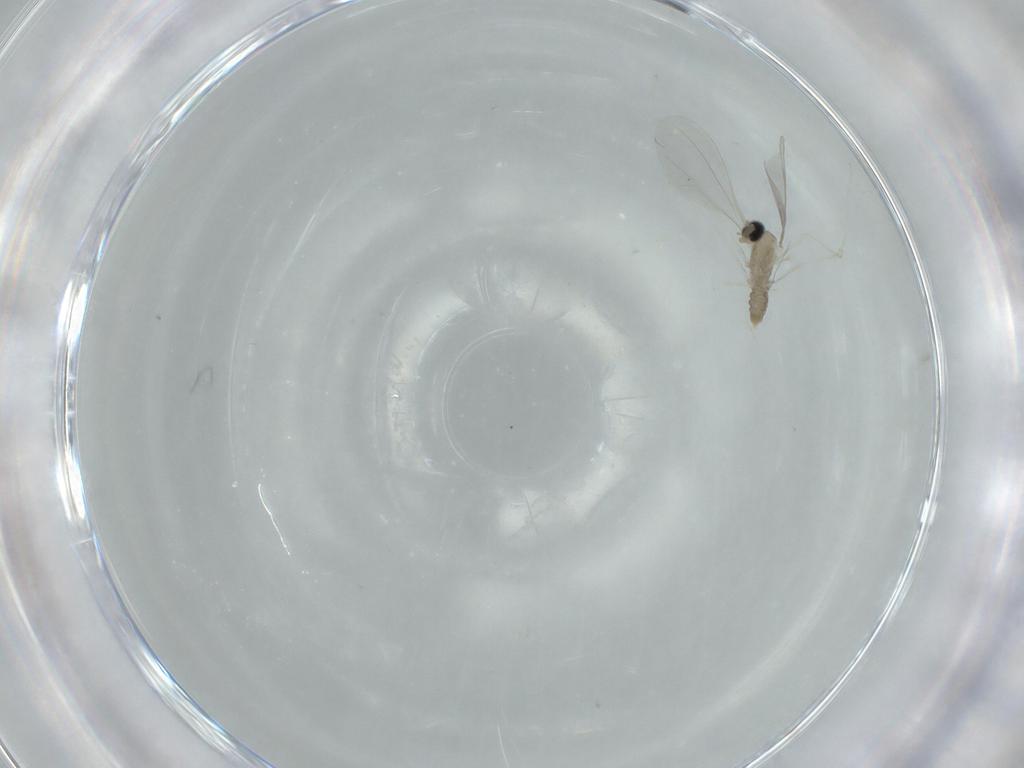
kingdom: Animalia
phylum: Arthropoda
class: Insecta
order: Diptera
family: Cecidomyiidae
